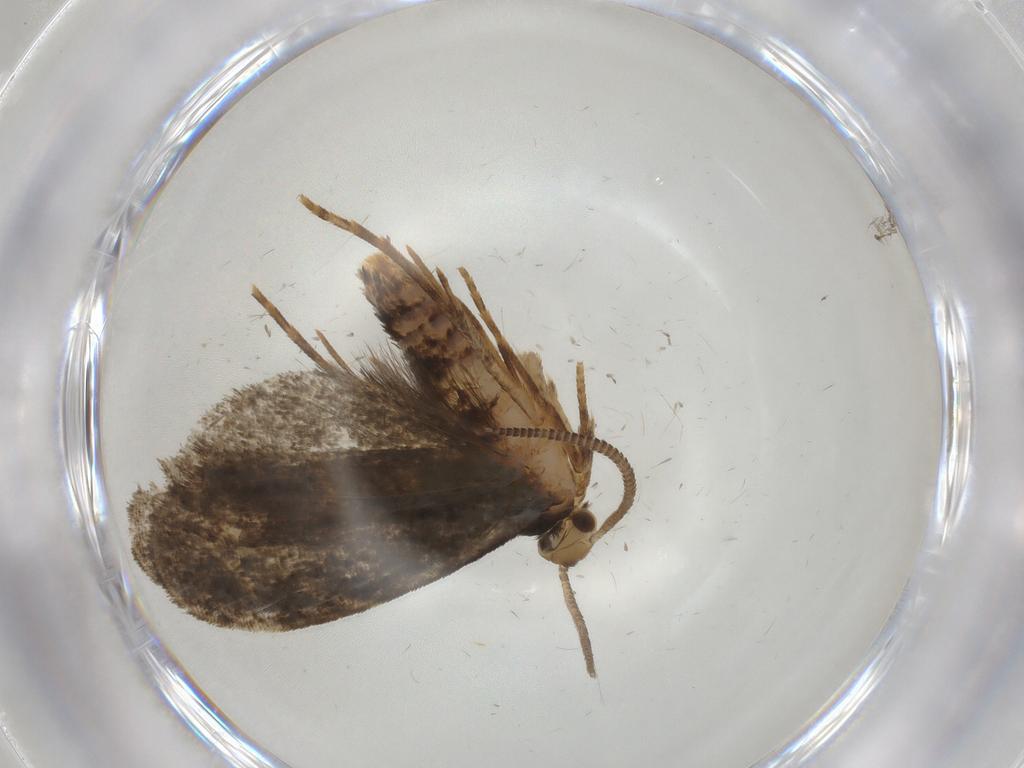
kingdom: Animalia
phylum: Arthropoda
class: Insecta
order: Lepidoptera
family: Dryadaulidae
